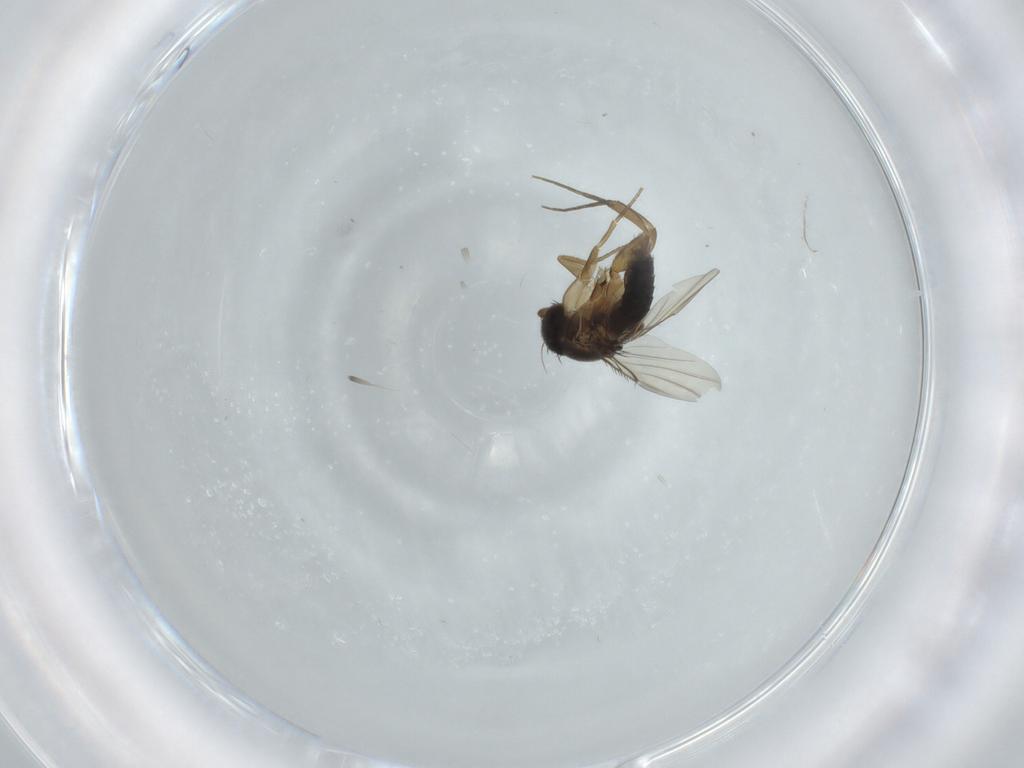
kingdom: Animalia
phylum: Arthropoda
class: Insecta
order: Diptera
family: Phoridae
